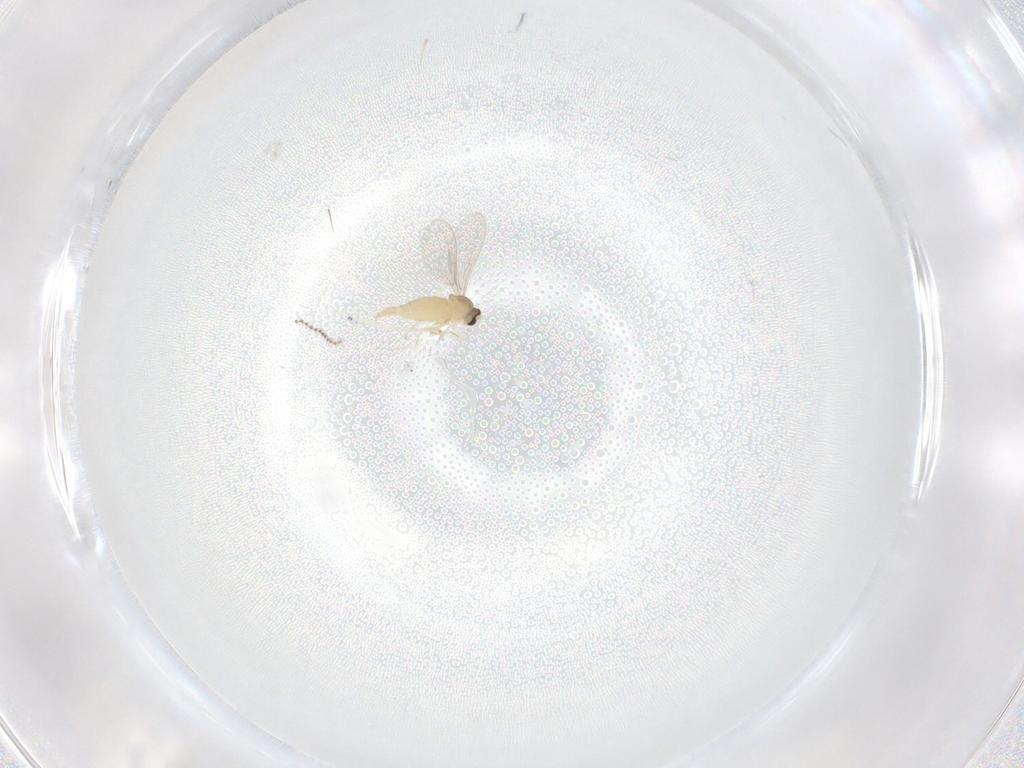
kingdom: Animalia
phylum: Arthropoda
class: Insecta
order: Diptera
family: Cecidomyiidae
